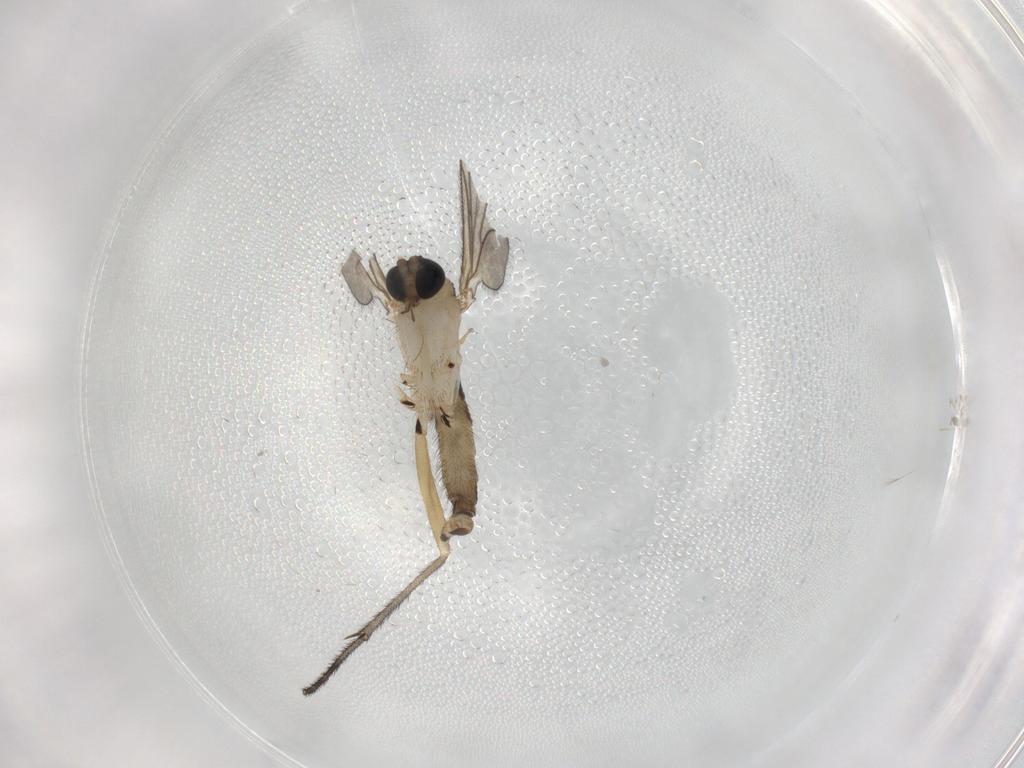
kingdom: Animalia
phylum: Arthropoda
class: Insecta
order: Diptera
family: Sciaridae
